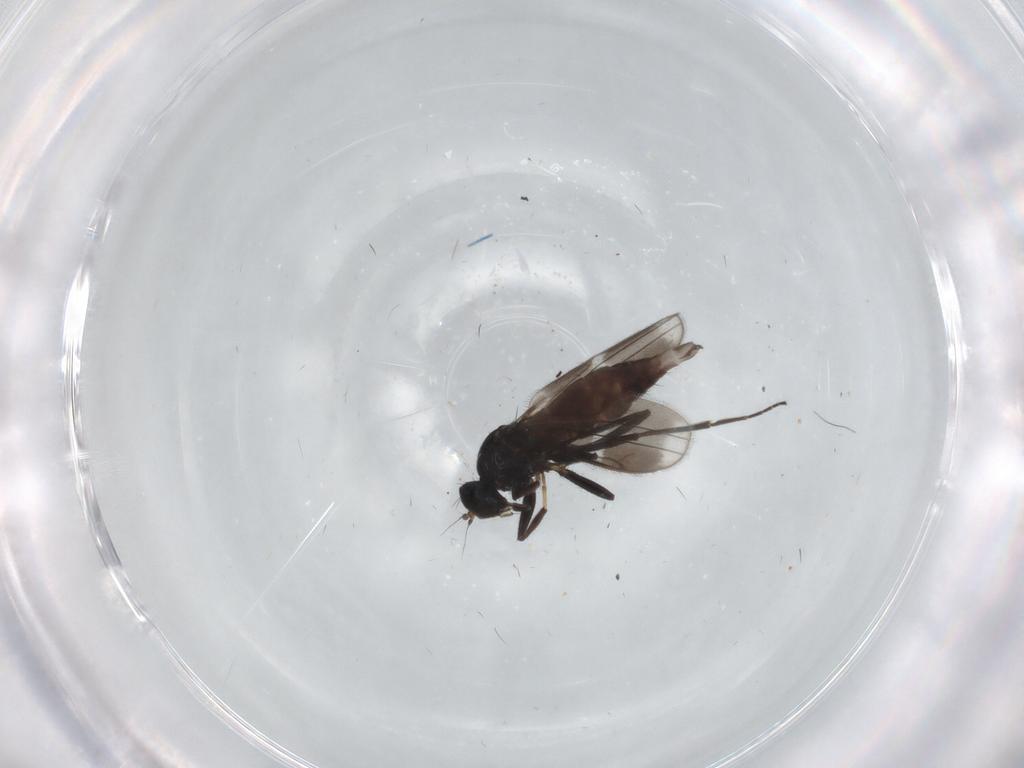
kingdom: Animalia
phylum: Arthropoda
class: Insecta
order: Diptera
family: Hybotidae
